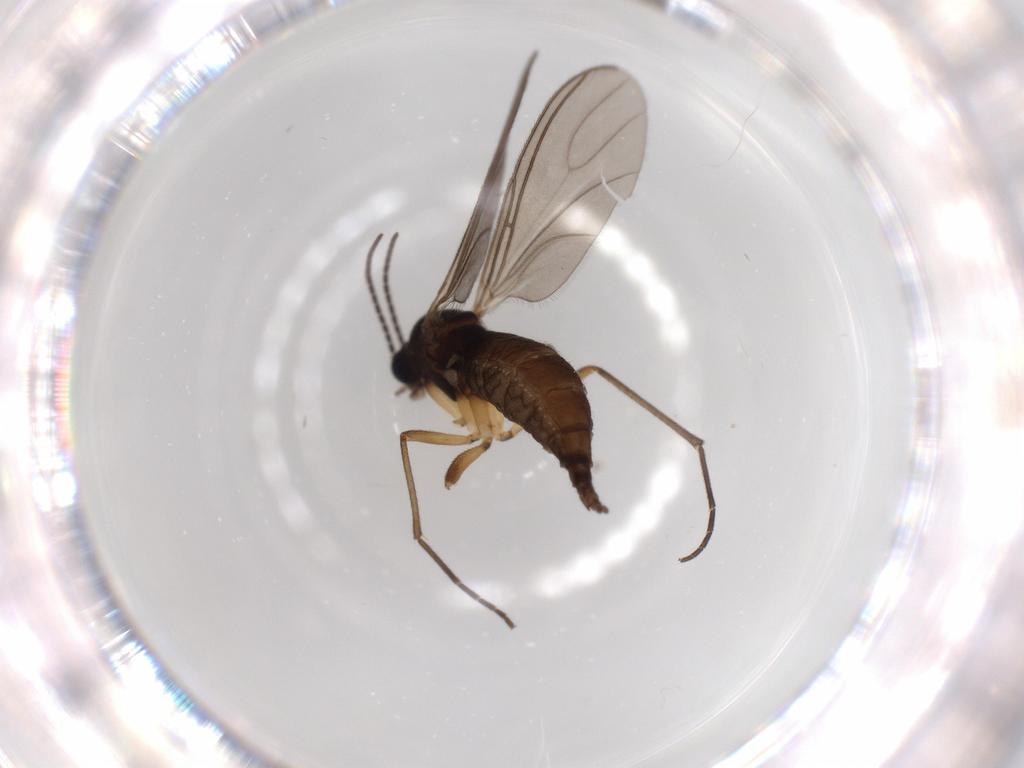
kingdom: Animalia
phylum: Arthropoda
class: Insecta
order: Diptera
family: Sciaridae
